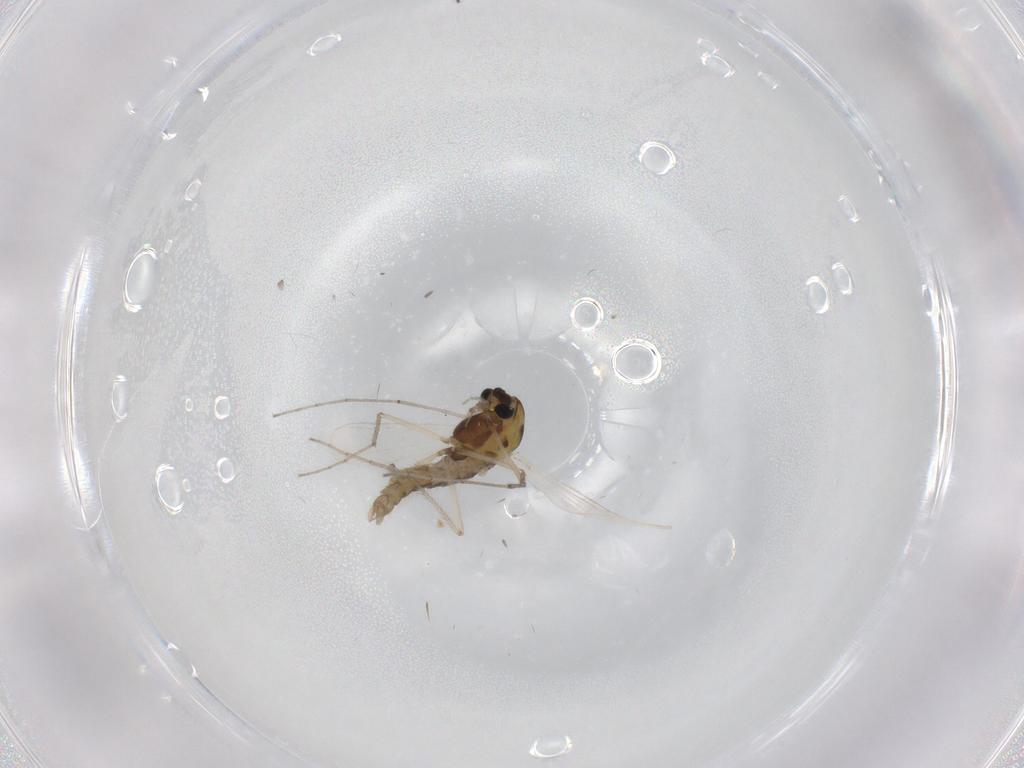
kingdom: Animalia
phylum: Arthropoda
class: Insecta
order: Diptera
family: Chironomidae
